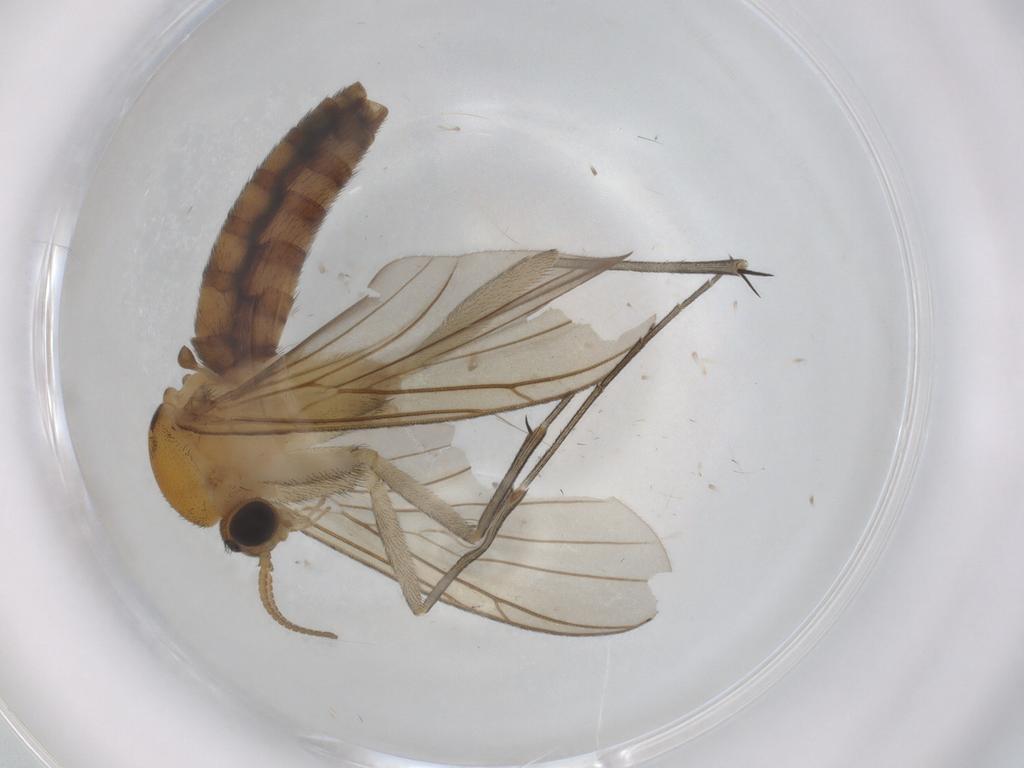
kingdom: Animalia
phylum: Arthropoda
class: Insecta
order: Diptera
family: Ceratopogonidae
